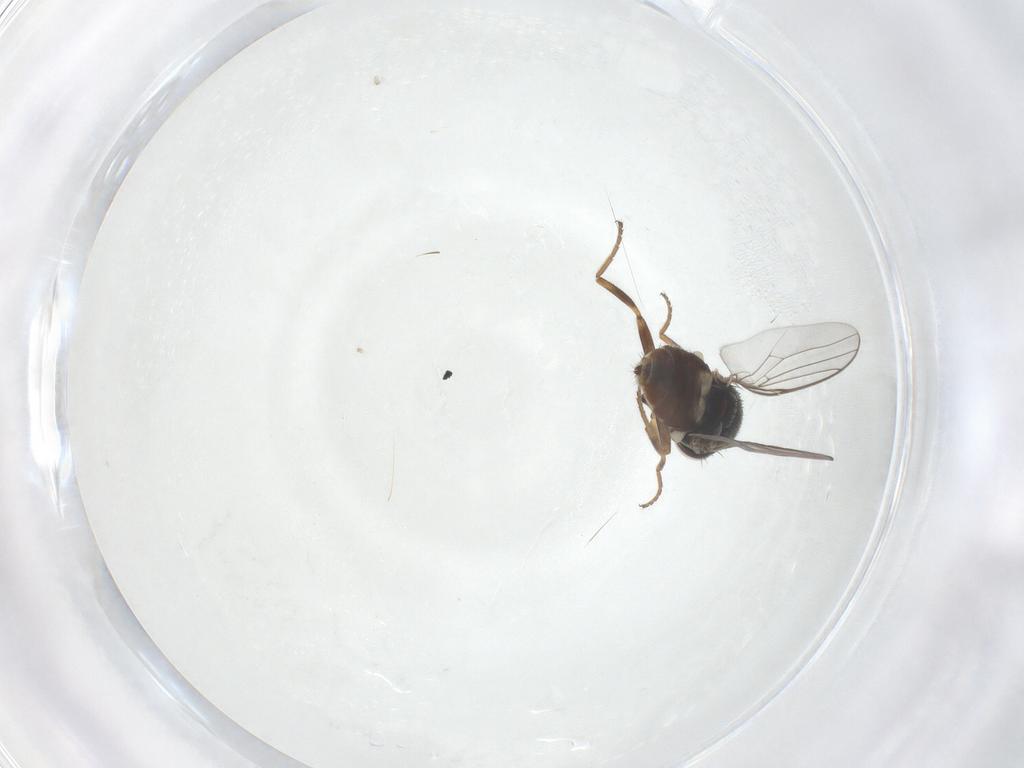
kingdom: Animalia
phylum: Arthropoda
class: Insecta
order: Diptera
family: Chloropidae
